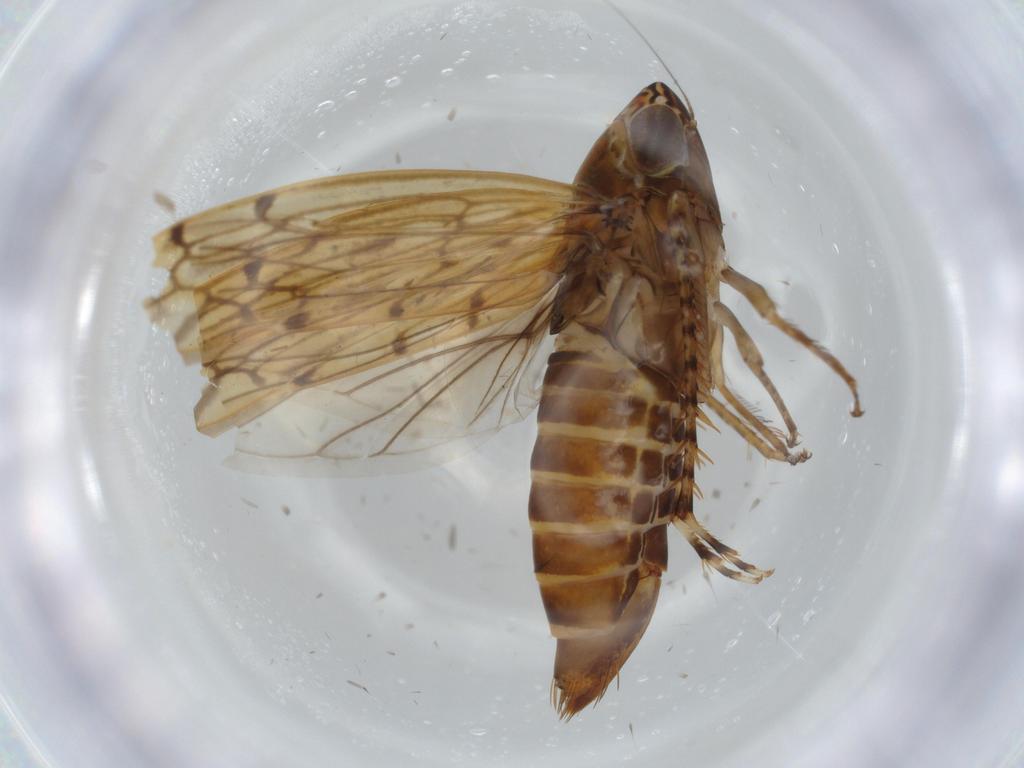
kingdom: Animalia
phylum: Arthropoda
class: Insecta
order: Hemiptera
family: Cicadellidae
